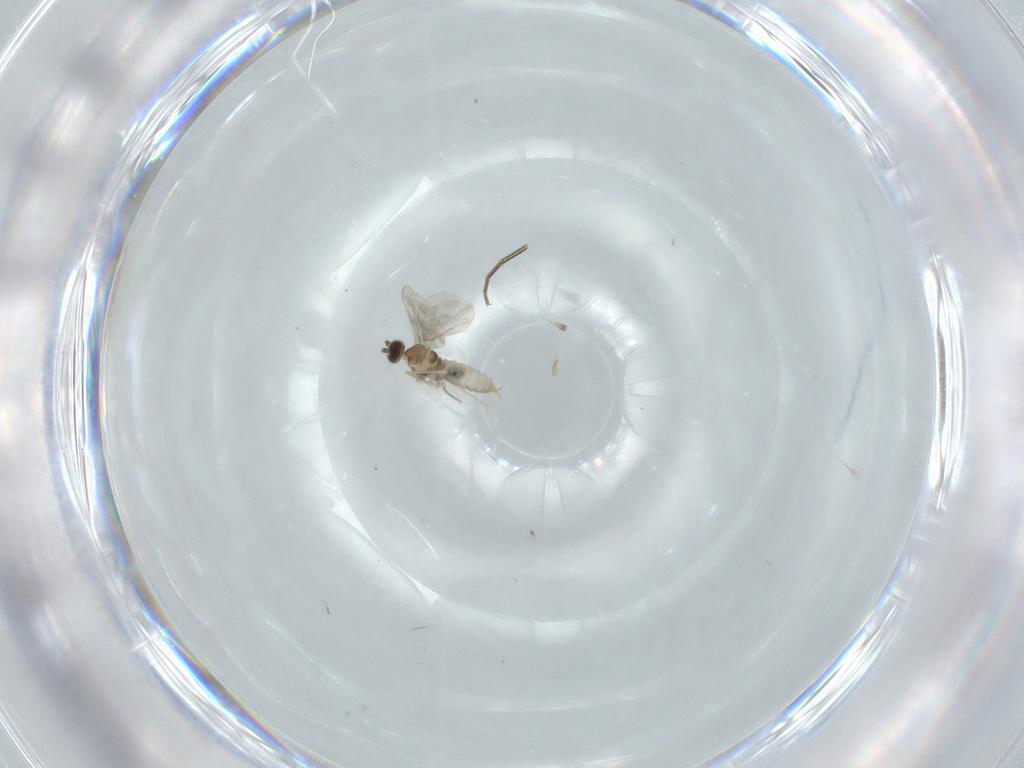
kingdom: Animalia
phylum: Arthropoda
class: Insecta
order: Diptera
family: Cecidomyiidae
